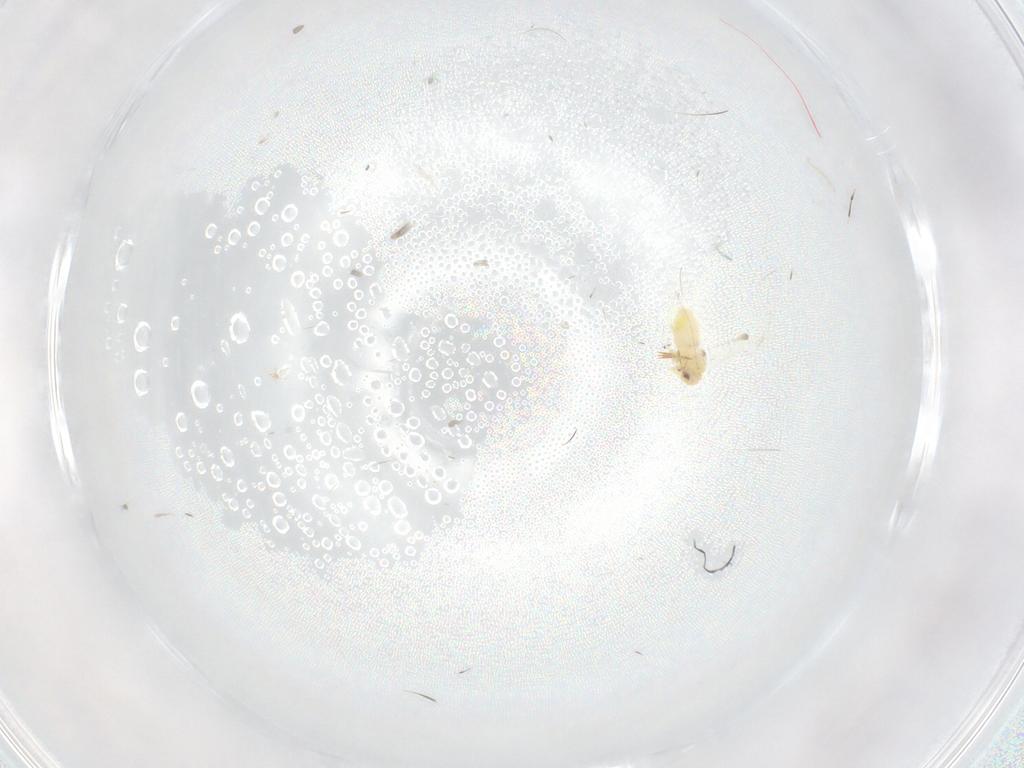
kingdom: Animalia
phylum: Arthropoda
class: Insecta
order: Hemiptera
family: Aleyrodidae
